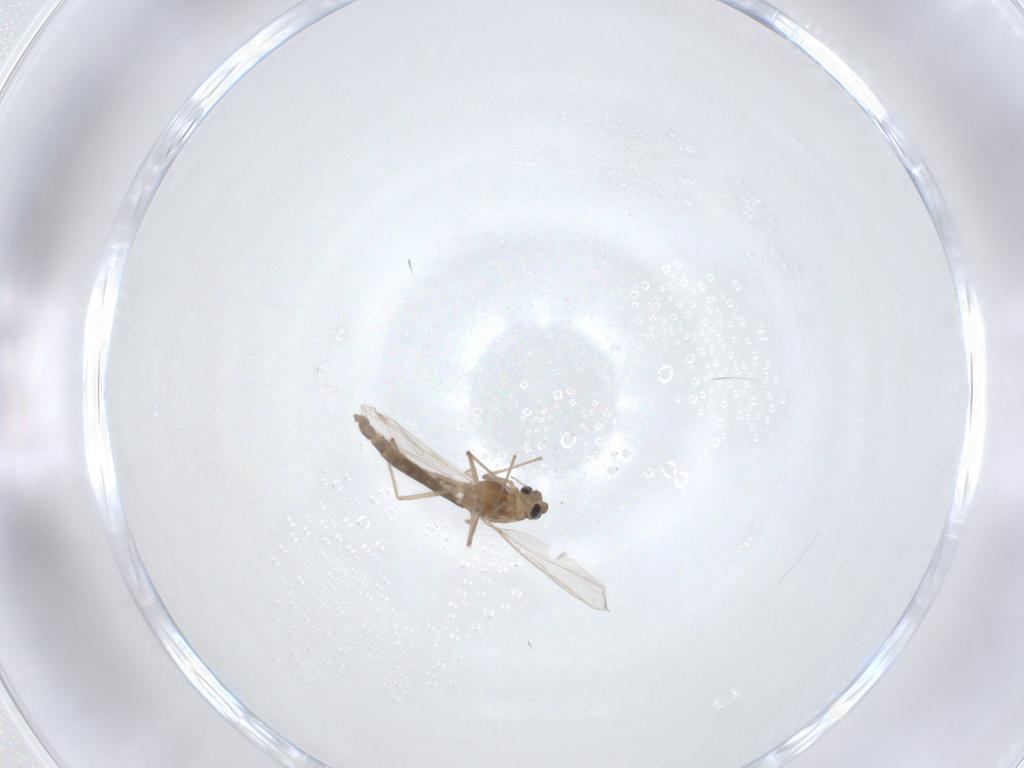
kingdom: Animalia
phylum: Arthropoda
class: Insecta
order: Diptera
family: Chironomidae
